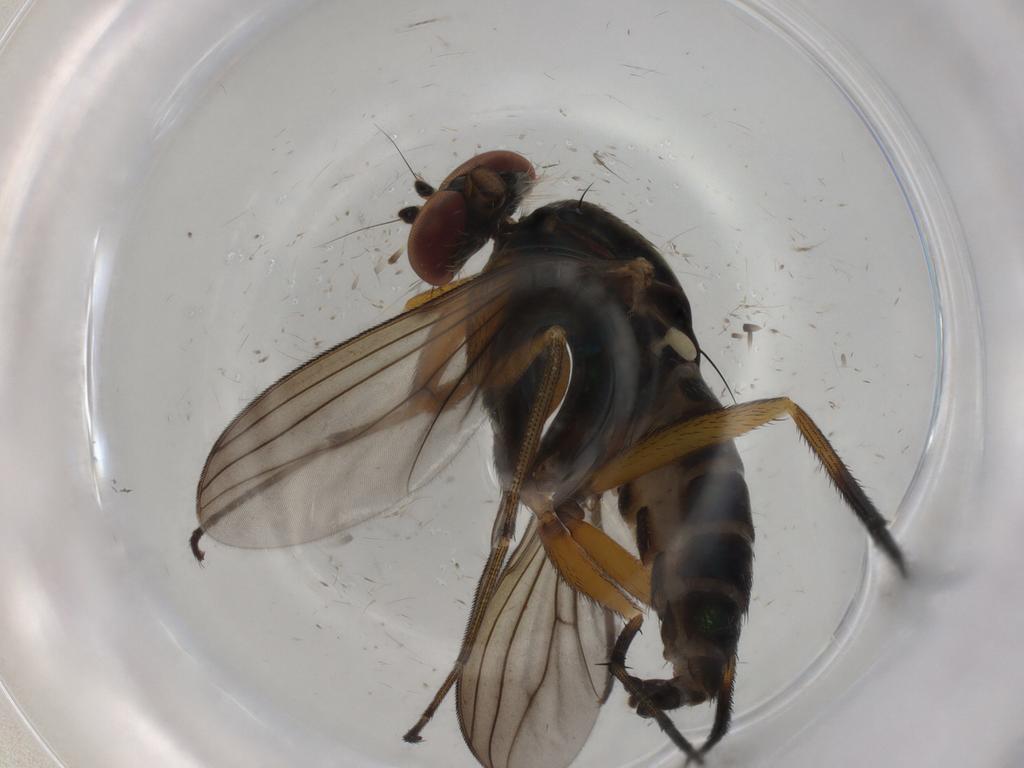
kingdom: Animalia
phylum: Arthropoda
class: Insecta
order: Diptera
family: Dolichopodidae
